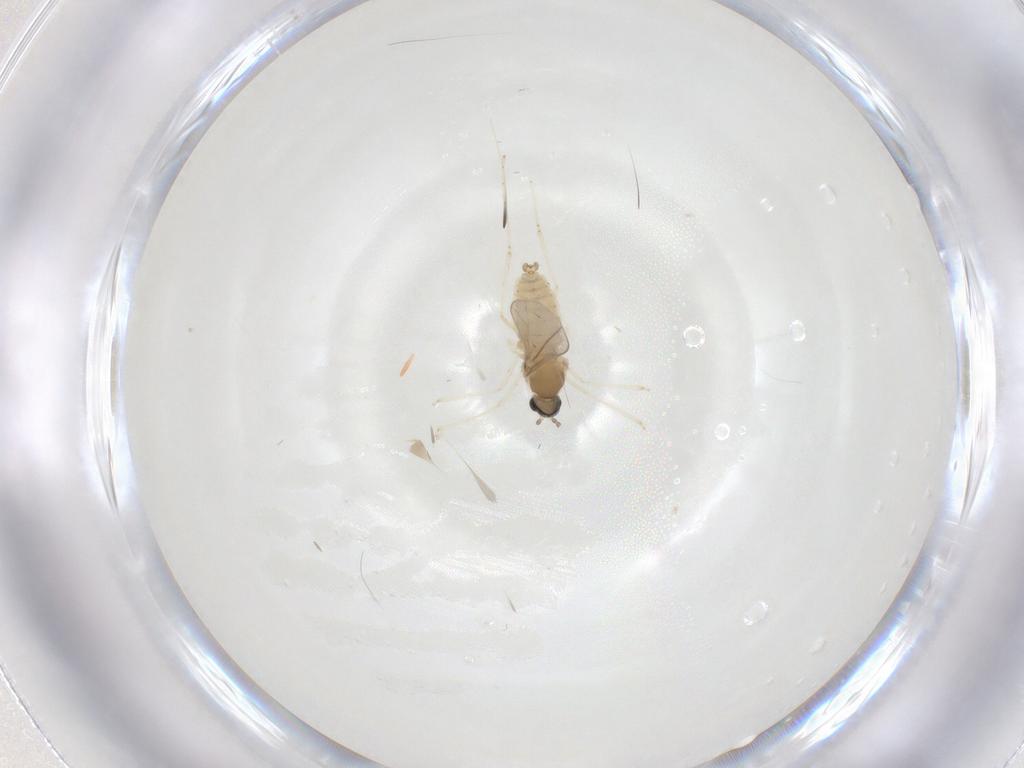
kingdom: Animalia
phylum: Arthropoda
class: Insecta
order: Diptera
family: Cecidomyiidae
